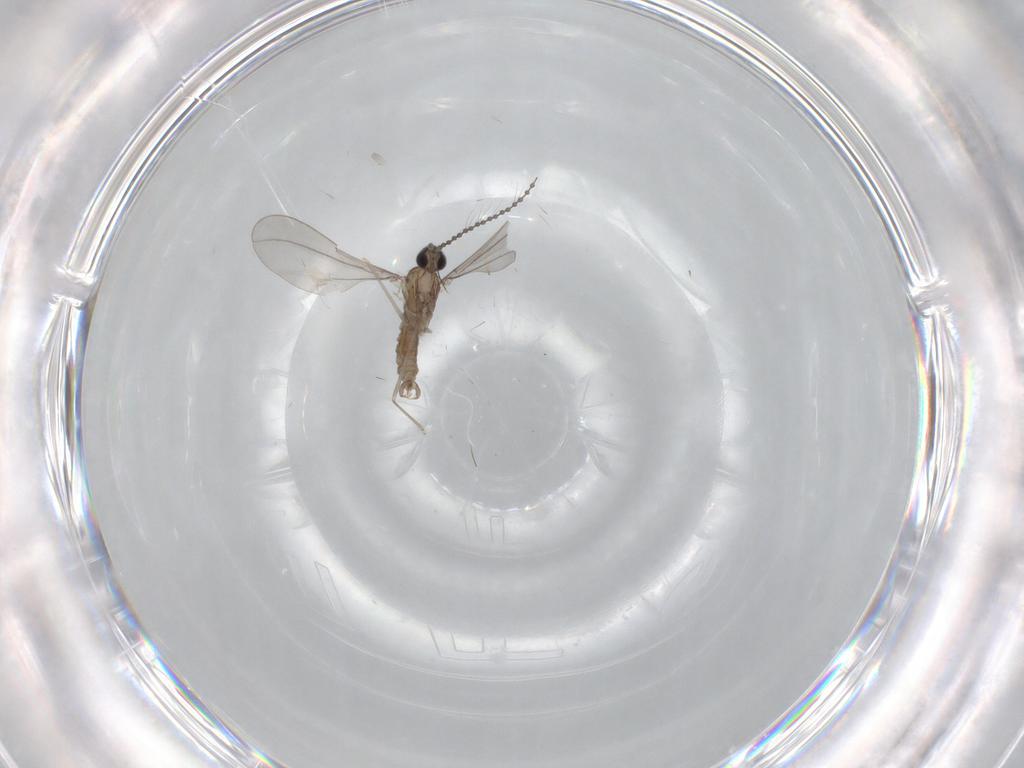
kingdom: Animalia
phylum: Arthropoda
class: Insecta
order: Diptera
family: Cecidomyiidae
